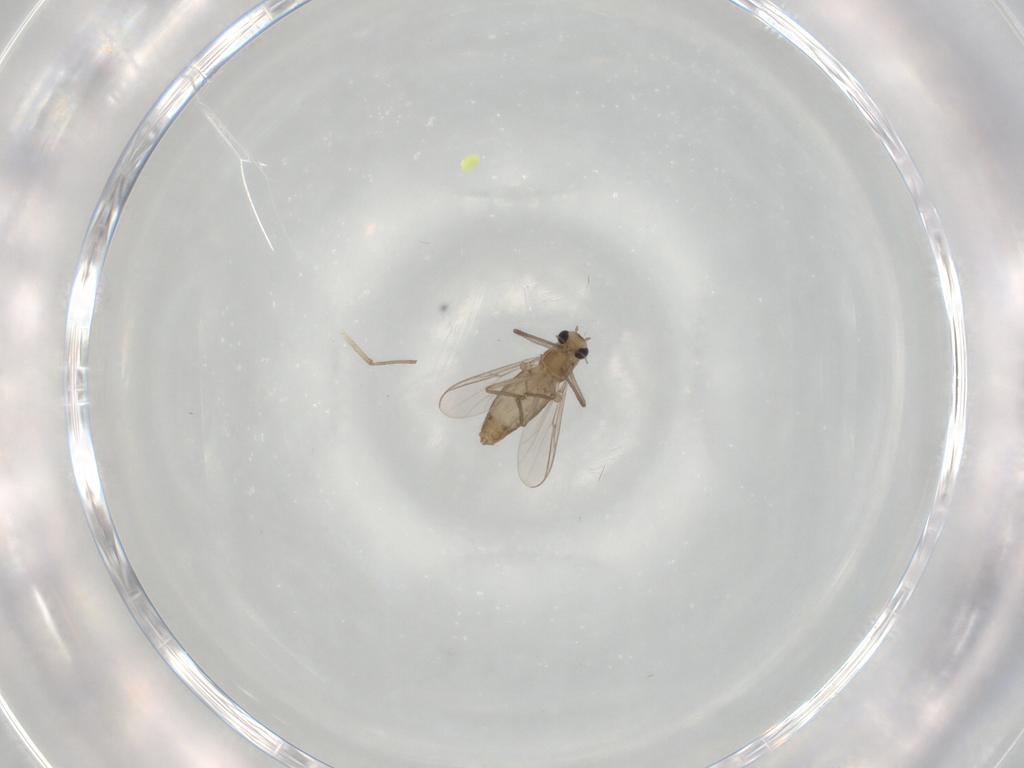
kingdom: Animalia
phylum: Arthropoda
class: Insecta
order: Diptera
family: Chironomidae
